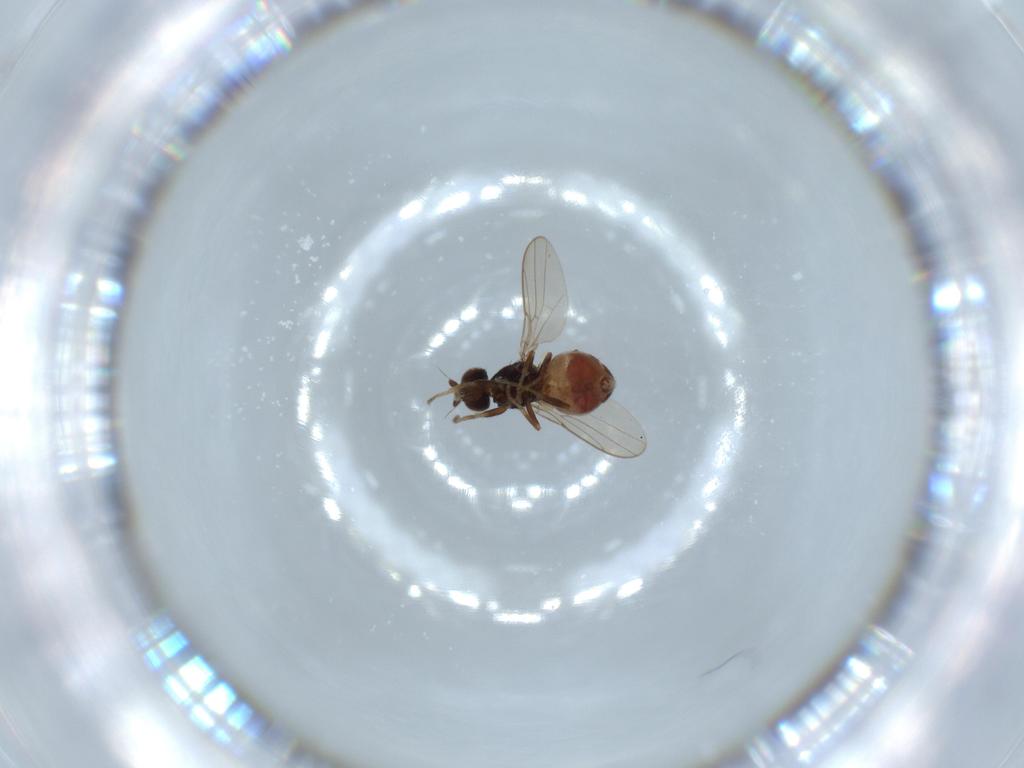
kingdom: Animalia
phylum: Arthropoda
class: Insecta
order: Diptera
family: Chloropidae
